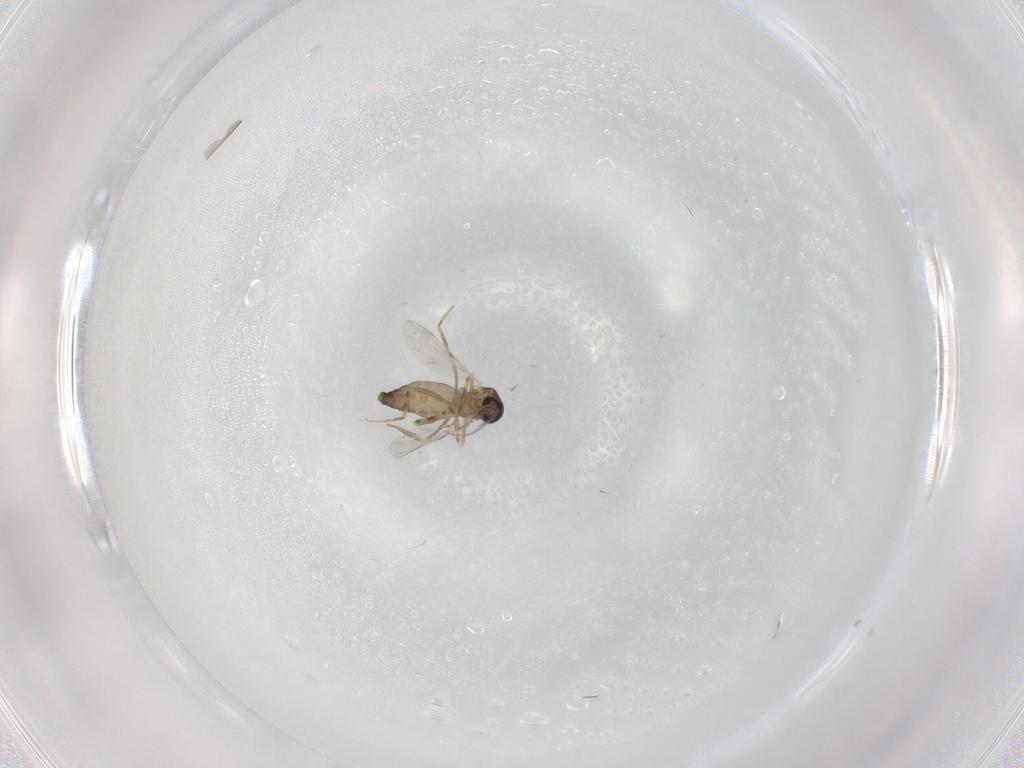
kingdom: Animalia
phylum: Arthropoda
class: Insecta
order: Diptera
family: Ceratopogonidae
